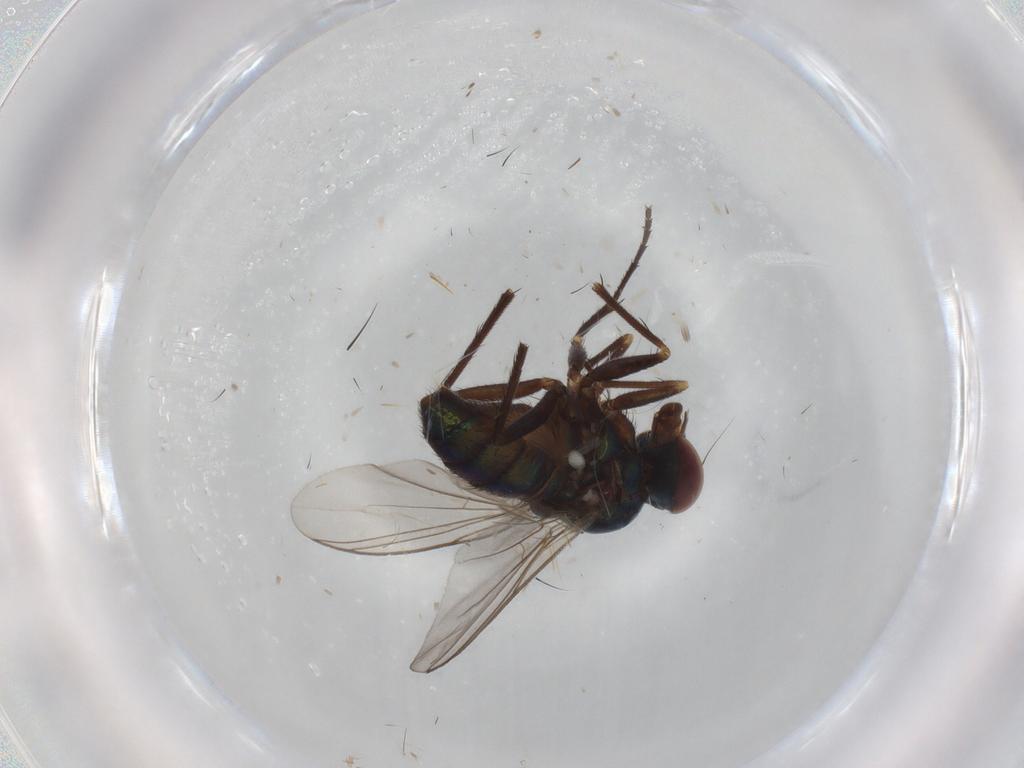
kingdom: Animalia
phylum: Arthropoda
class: Insecta
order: Diptera
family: Dolichopodidae
